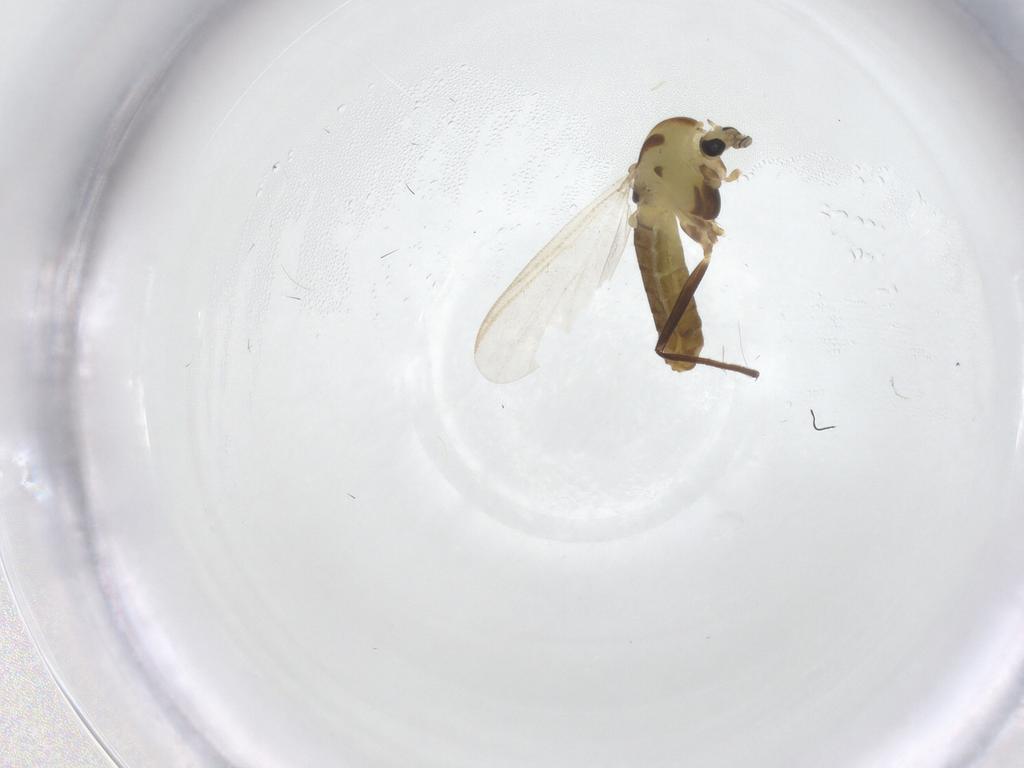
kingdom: Animalia
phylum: Arthropoda
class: Insecta
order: Diptera
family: Chironomidae
